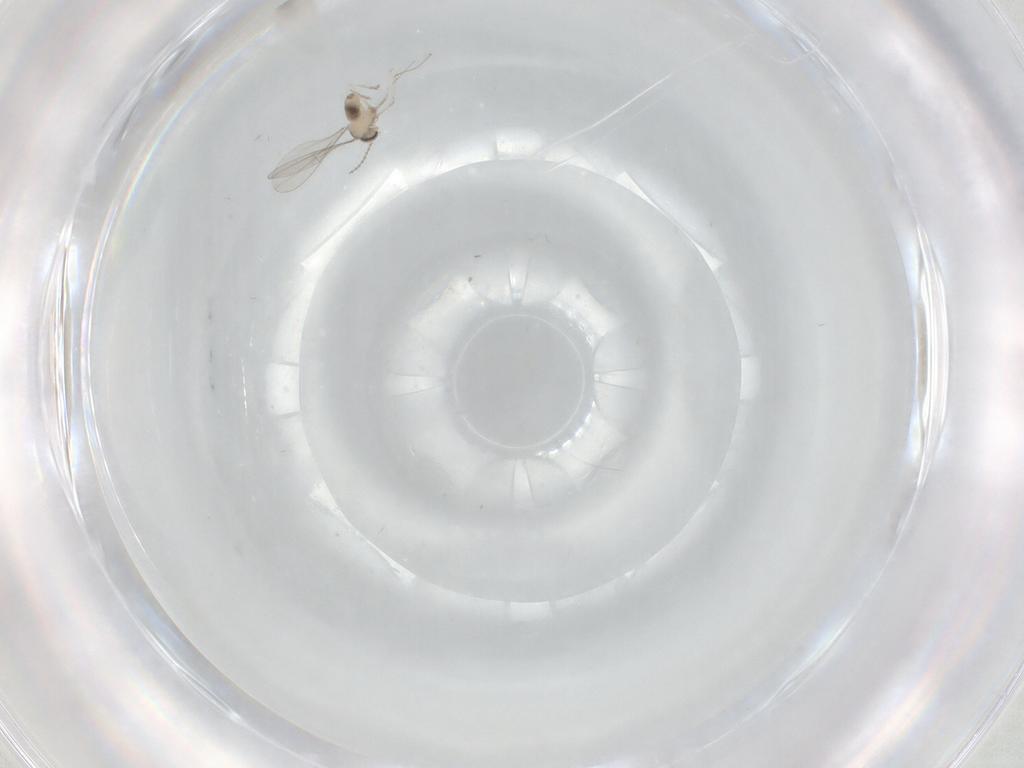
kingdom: Animalia
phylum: Arthropoda
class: Insecta
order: Diptera
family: Cecidomyiidae
